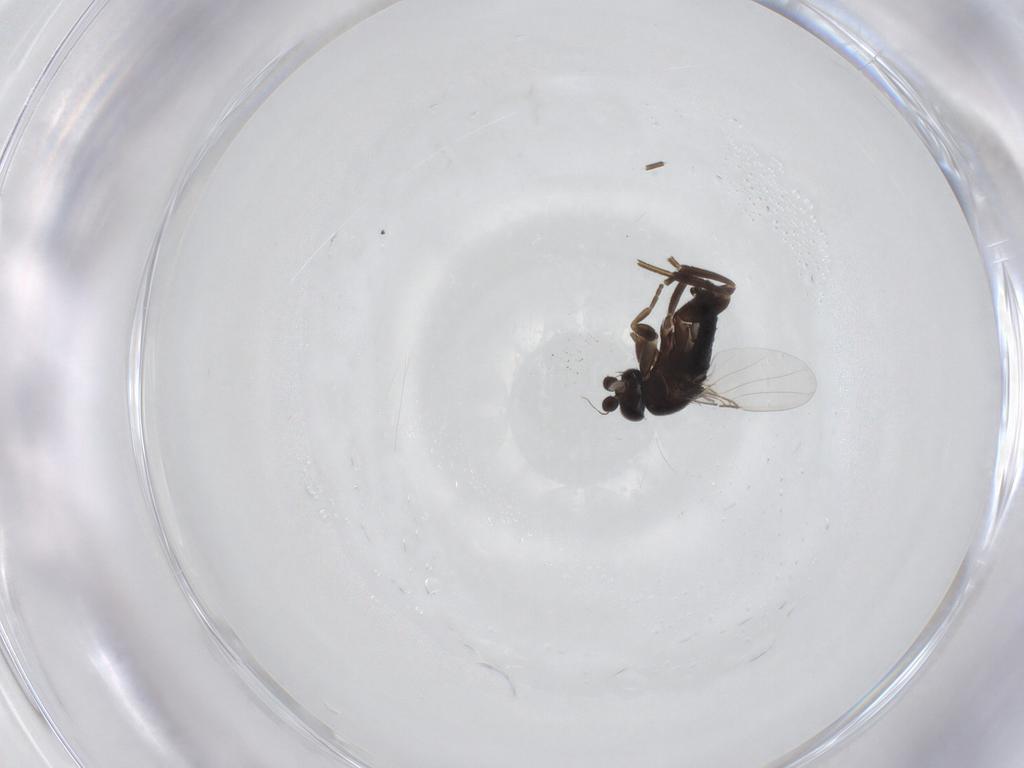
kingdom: Animalia
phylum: Arthropoda
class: Insecta
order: Diptera
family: Phoridae
